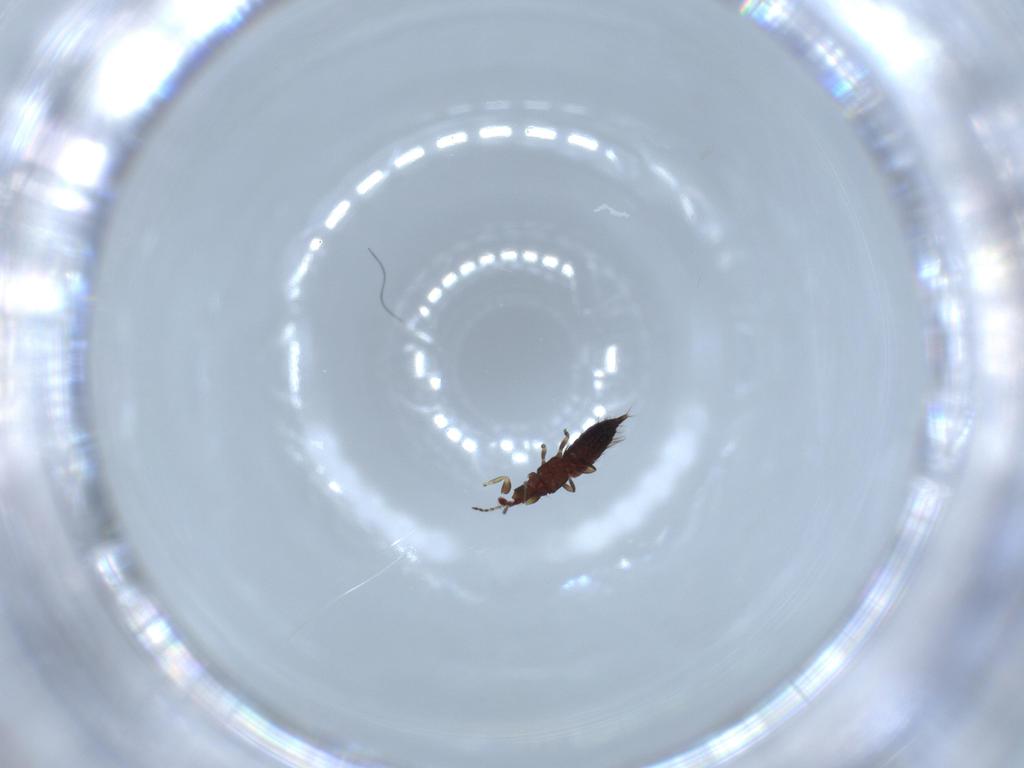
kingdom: Animalia
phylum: Arthropoda
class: Insecta
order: Thysanoptera
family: Phlaeothripidae
